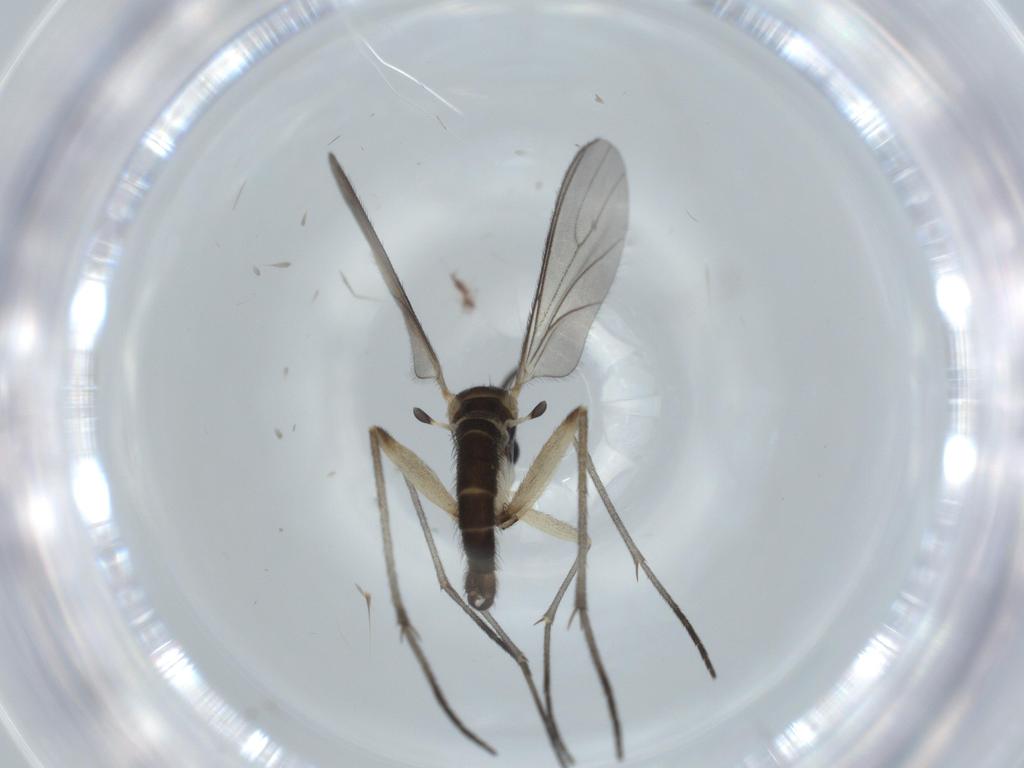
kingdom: Animalia
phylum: Arthropoda
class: Insecta
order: Diptera
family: Sciaridae
